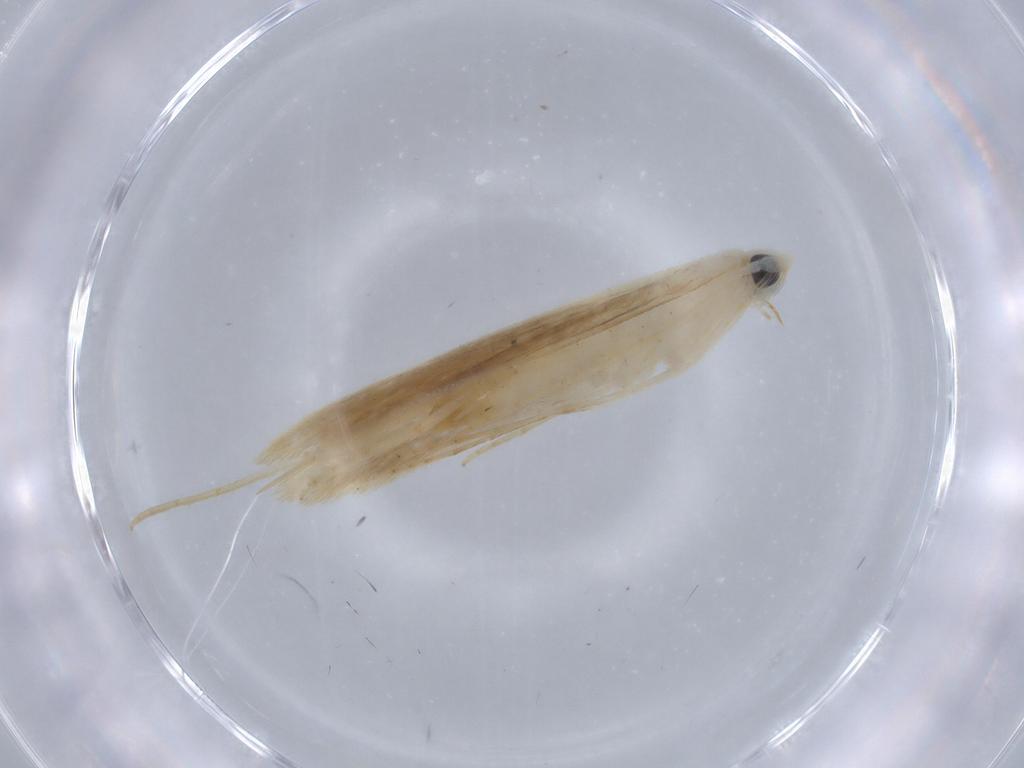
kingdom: Animalia
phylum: Arthropoda
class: Insecta
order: Lepidoptera
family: Lyonetiidae
